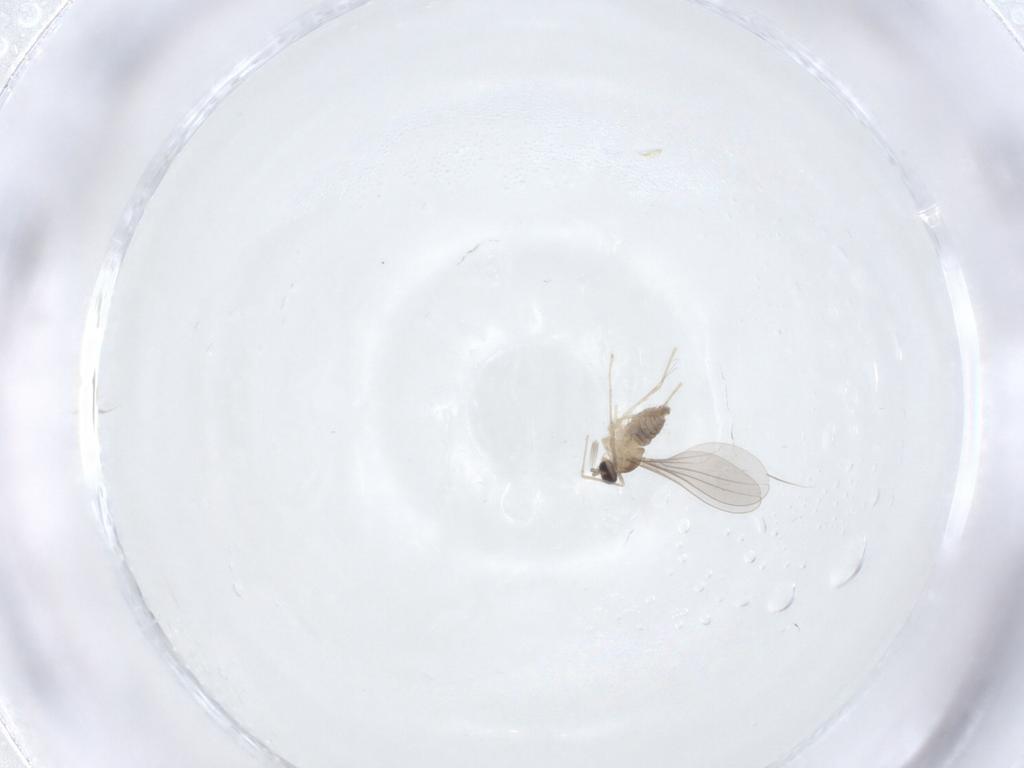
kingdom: Animalia
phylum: Arthropoda
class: Insecta
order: Diptera
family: Cecidomyiidae
